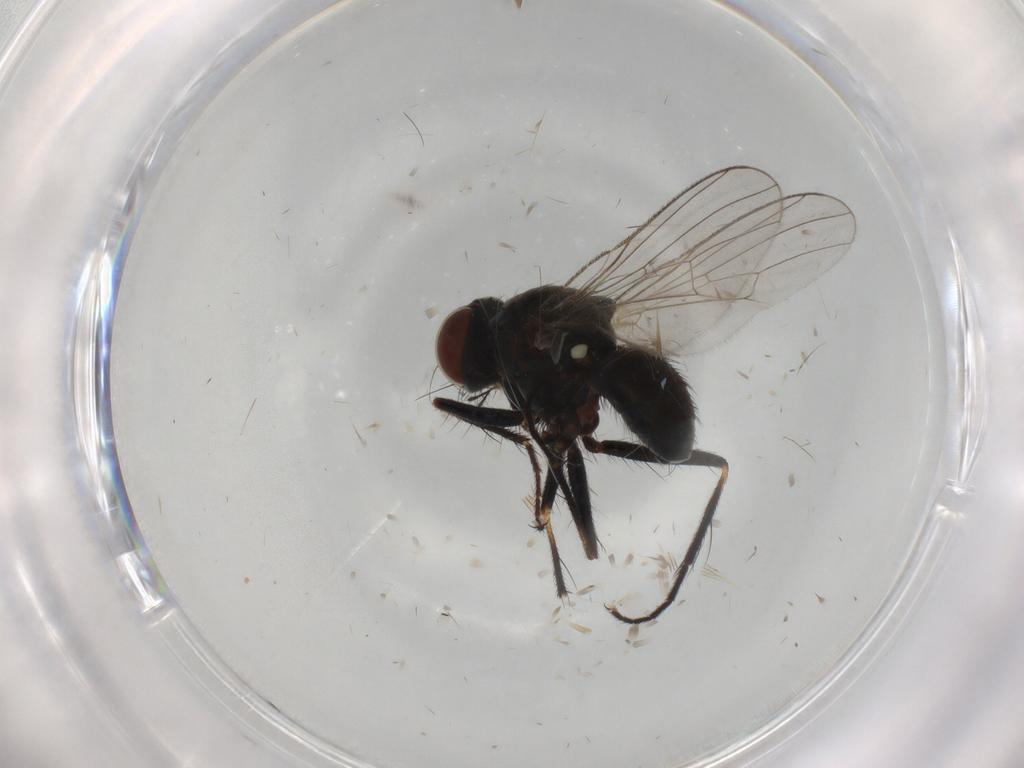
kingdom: Animalia
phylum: Arthropoda
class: Insecta
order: Diptera
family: Muscidae
